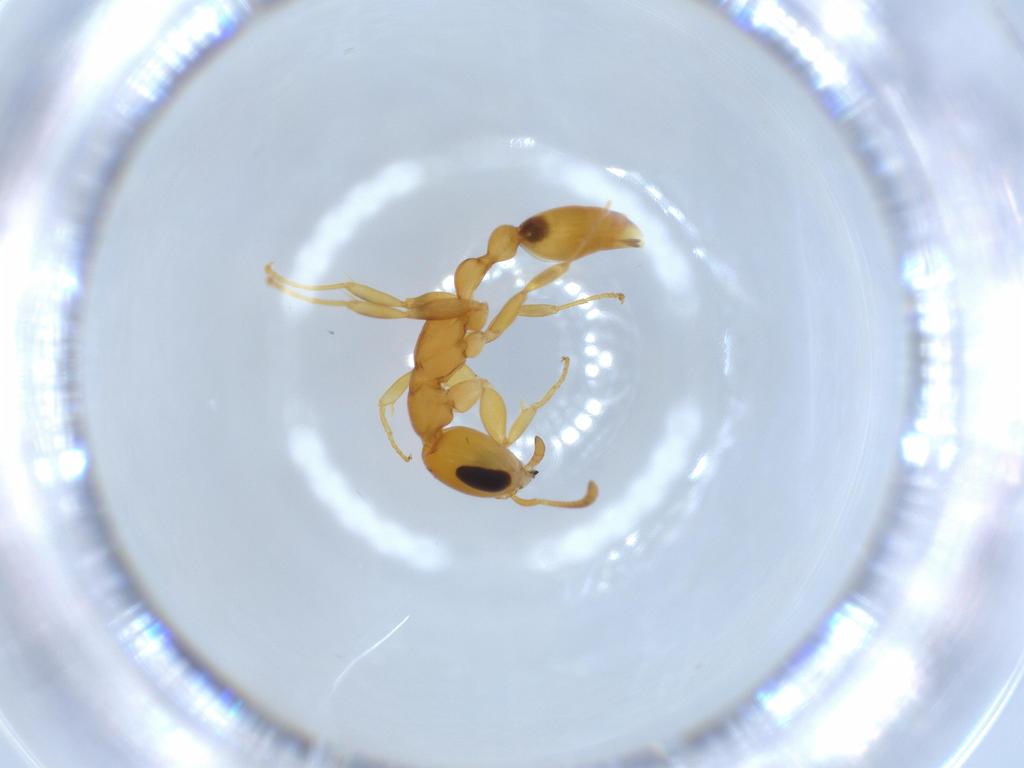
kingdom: Animalia
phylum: Arthropoda
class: Insecta
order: Hymenoptera
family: Formicidae
